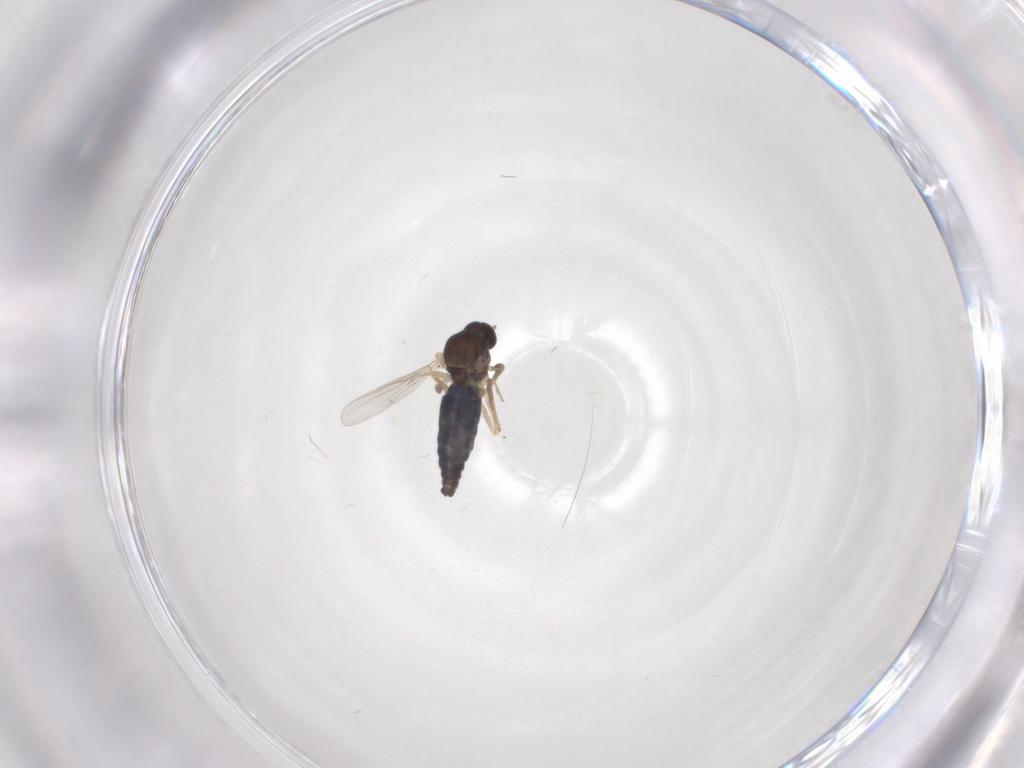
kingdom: Animalia
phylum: Arthropoda
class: Insecta
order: Diptera
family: Ceratopogonidae
